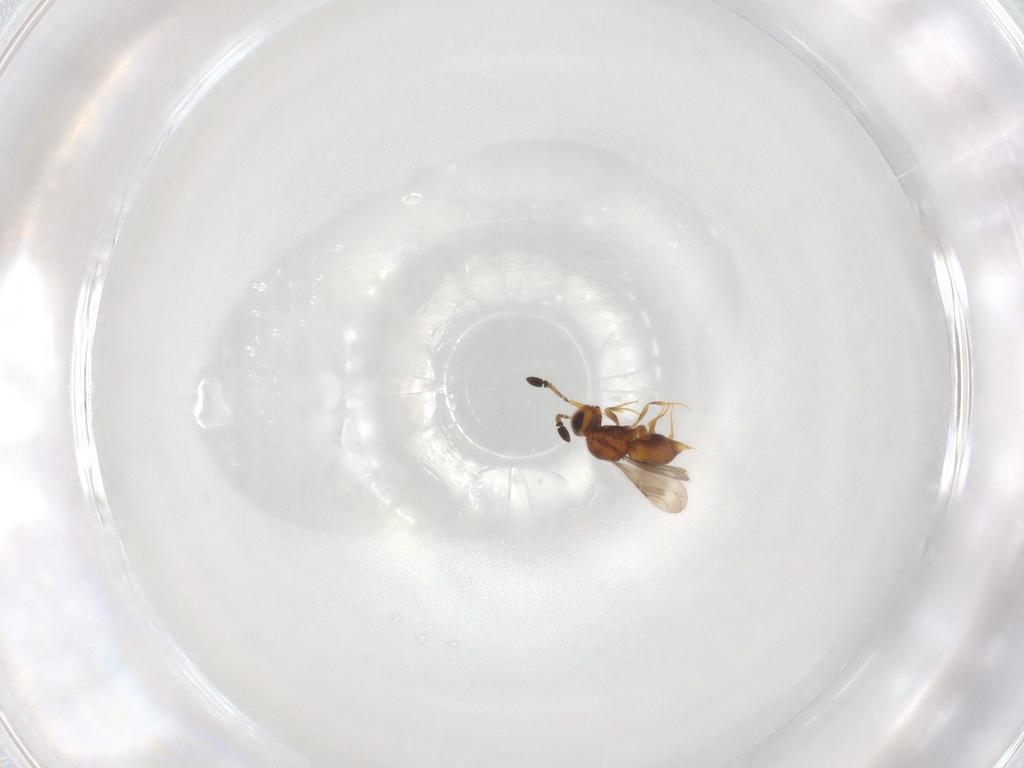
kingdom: Animalia
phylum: Arthropoda
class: Insecta
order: Hymenoptera
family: Ceraphronidae
